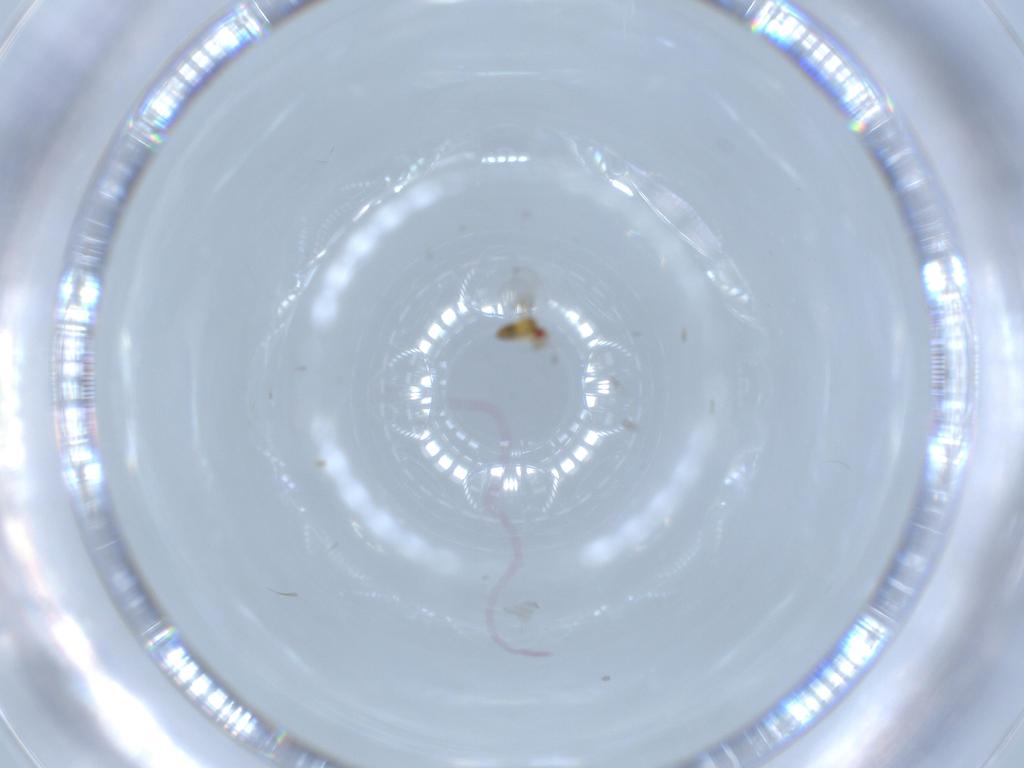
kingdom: Animalia
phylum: Arthropoda
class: Insecta
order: Hymenoptera
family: Trichogrammatidae
